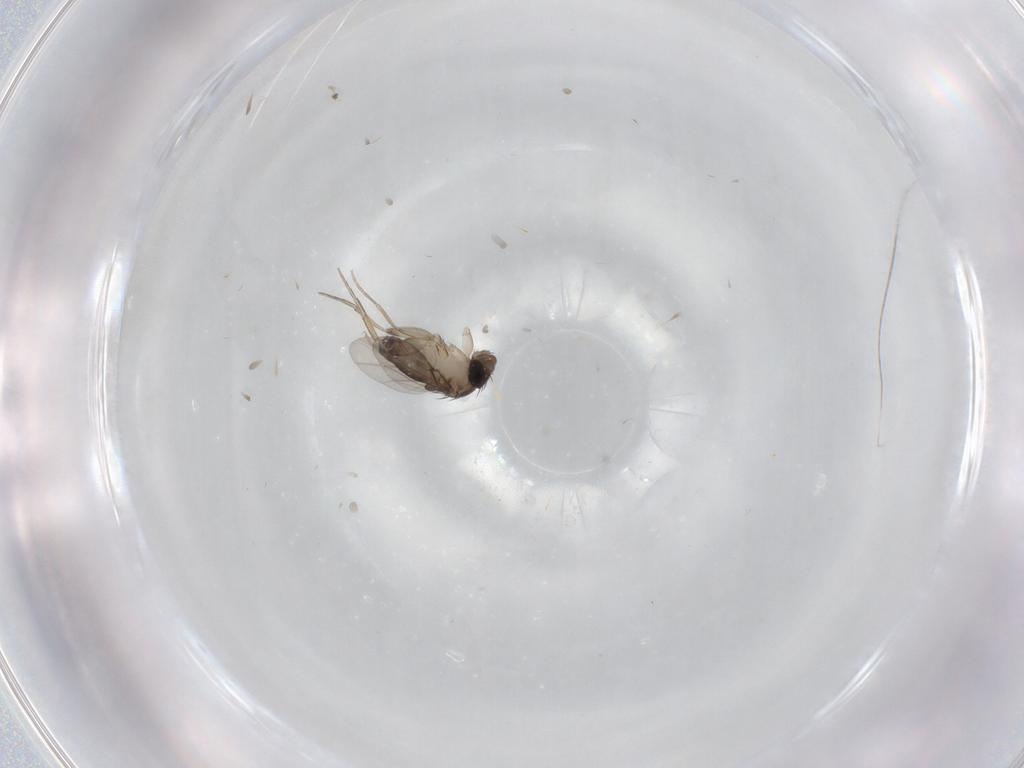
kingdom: Animalia
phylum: Arthropoda
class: Insecta
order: Diptera
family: Phoridae
